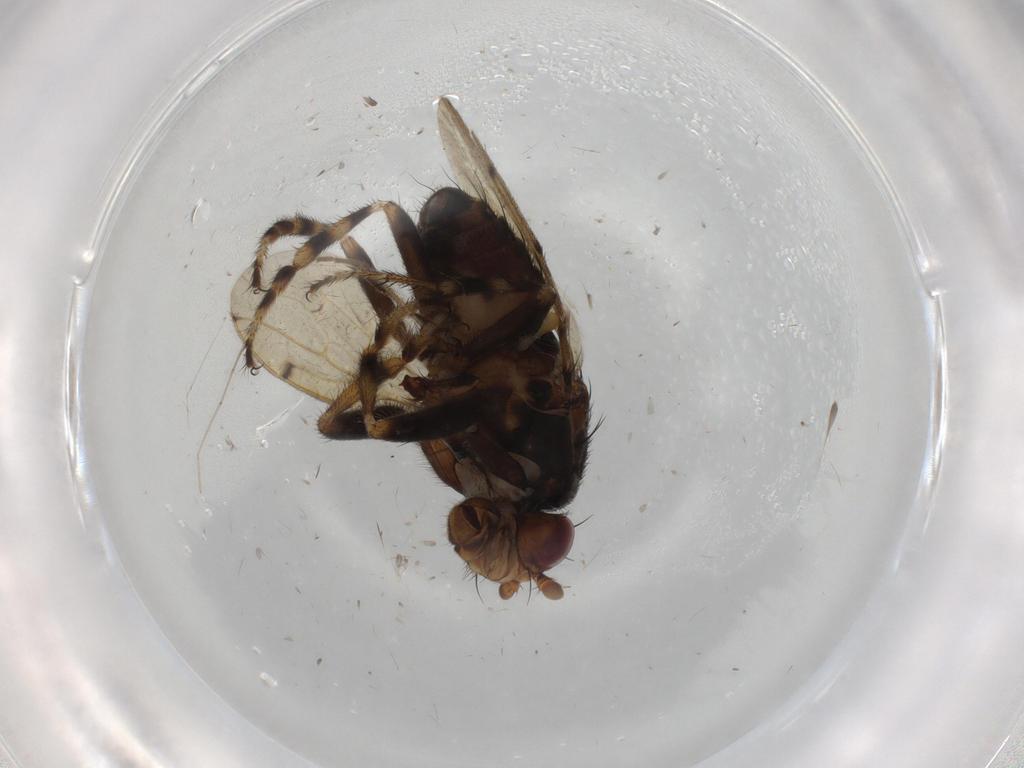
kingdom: Animalia
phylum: Arthropoda
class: Insecta
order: Diptera
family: Sphaeroceridae
